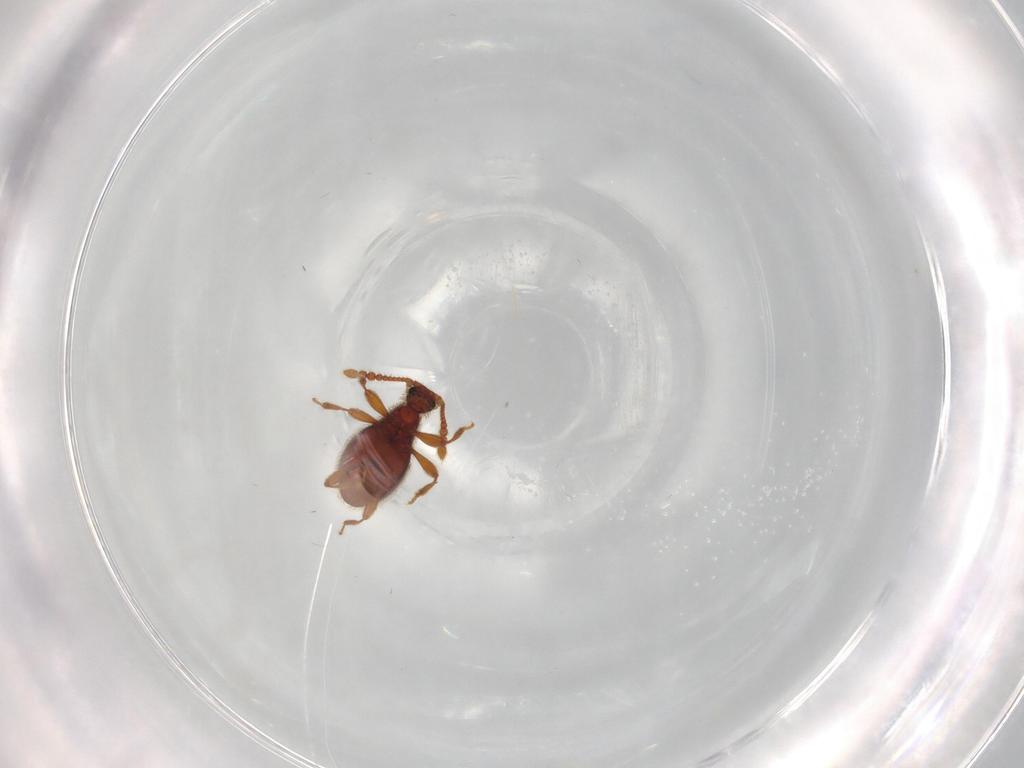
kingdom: Animalia
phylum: Arthropoda
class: Insecta
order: Coleoptera
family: Staphylinidae
